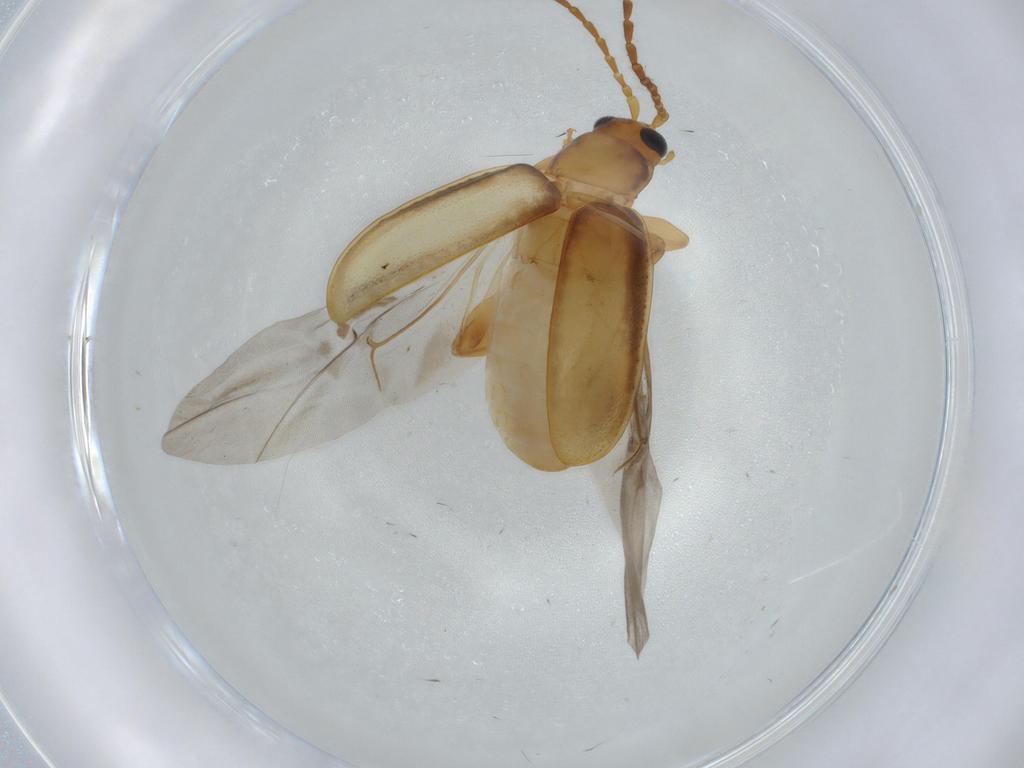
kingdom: Animalia
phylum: Arthropoda
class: Insecta
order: Coleoptera
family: Chrysomelidae
